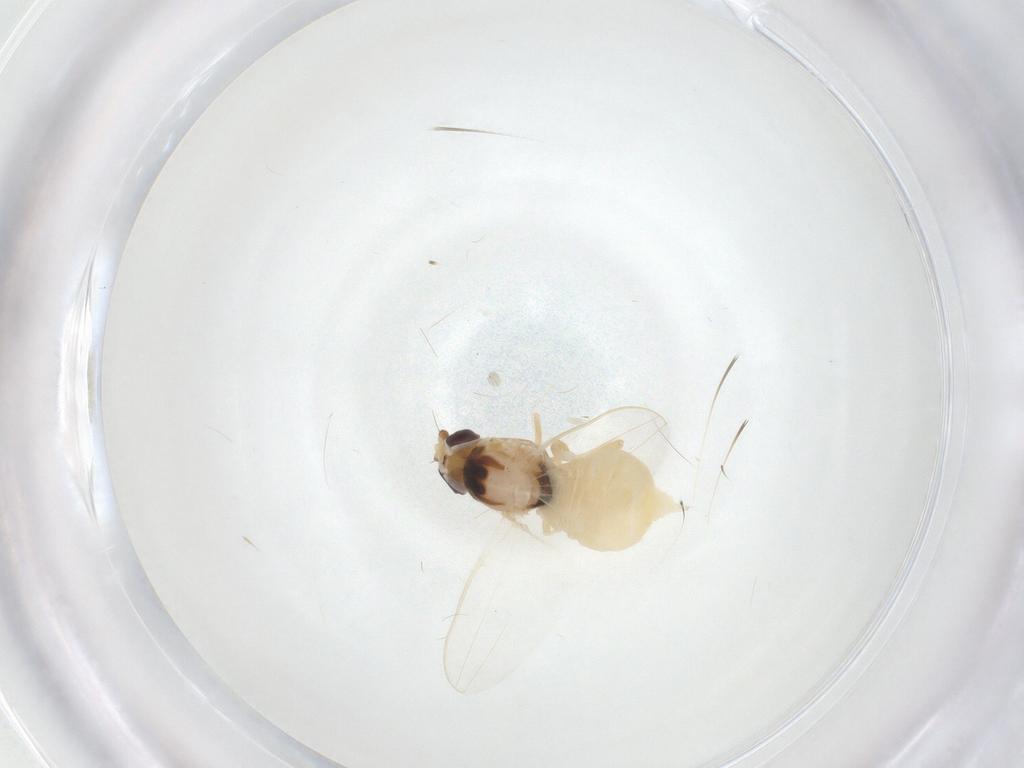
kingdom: Animalia
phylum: Arthropoda
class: Insecta
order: Diptera
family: Chloropidae
